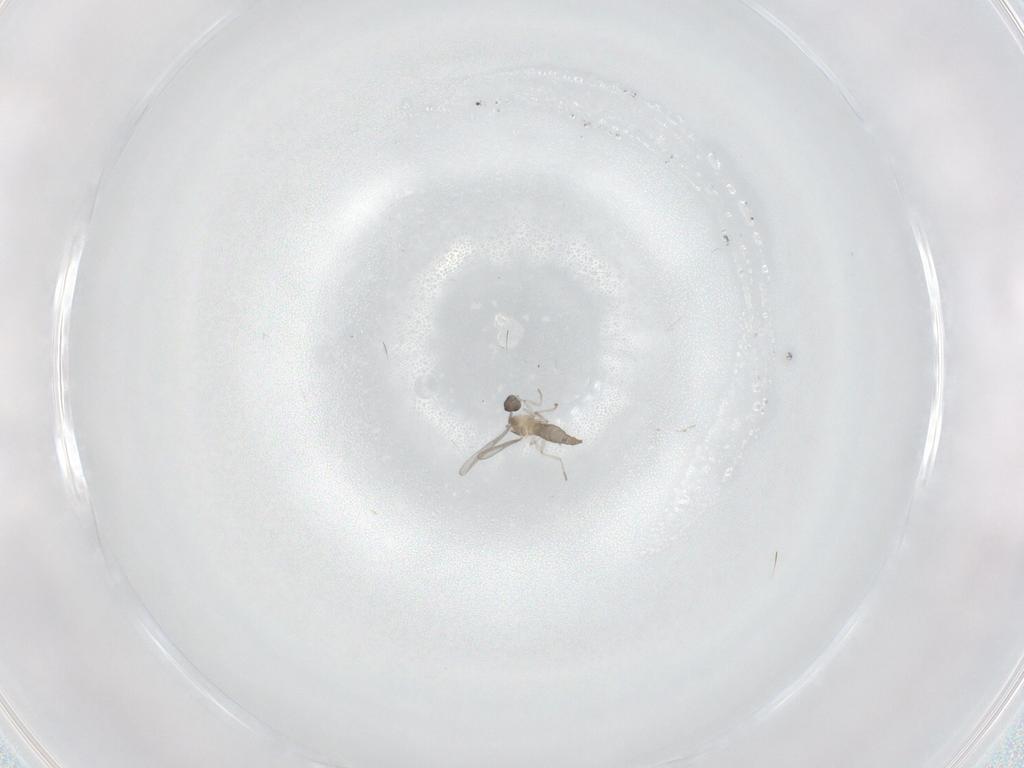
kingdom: Animalia
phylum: Arthropoda
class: Insecta
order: Diptera
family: Cecidomyiidae
